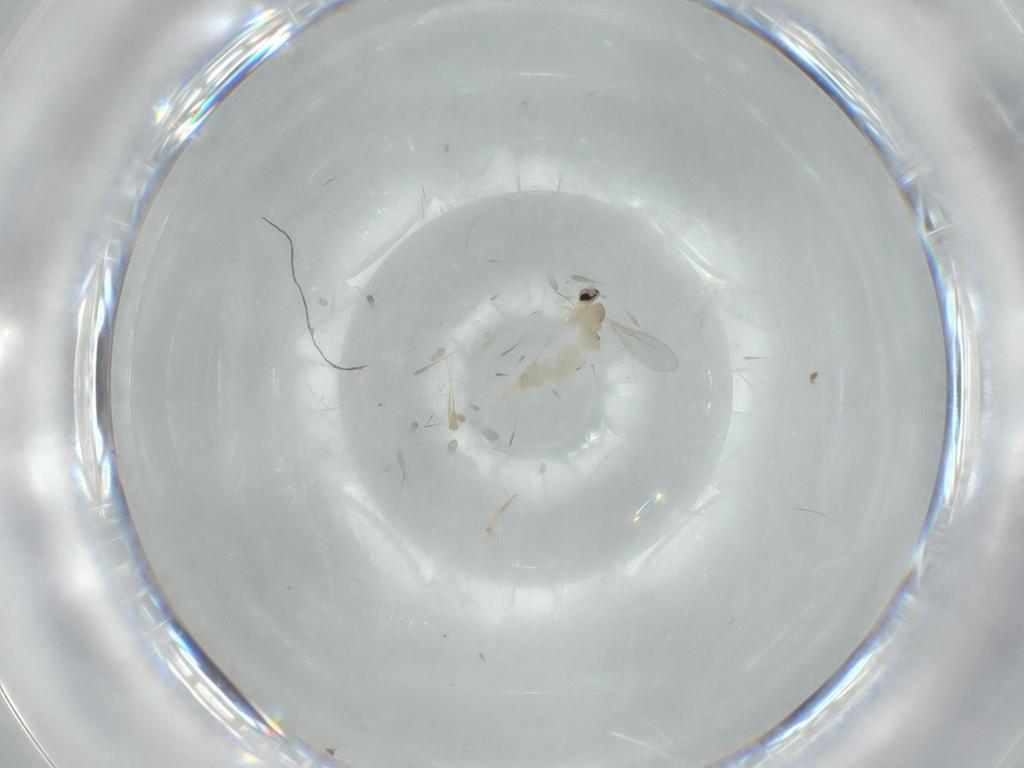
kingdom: Animalia
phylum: Arthropoda
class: Insecta
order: Diptera
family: Cecidomyiidae
